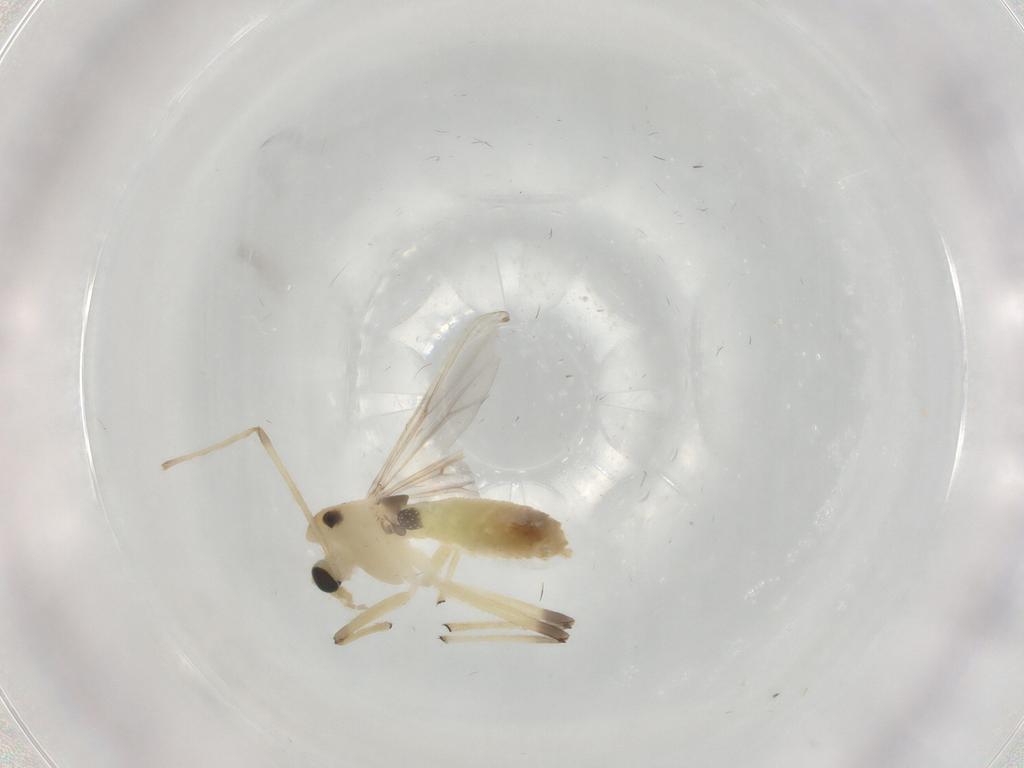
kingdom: Animalia
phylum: Arthropoda
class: Insecta
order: Diptera
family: Chironomidae
